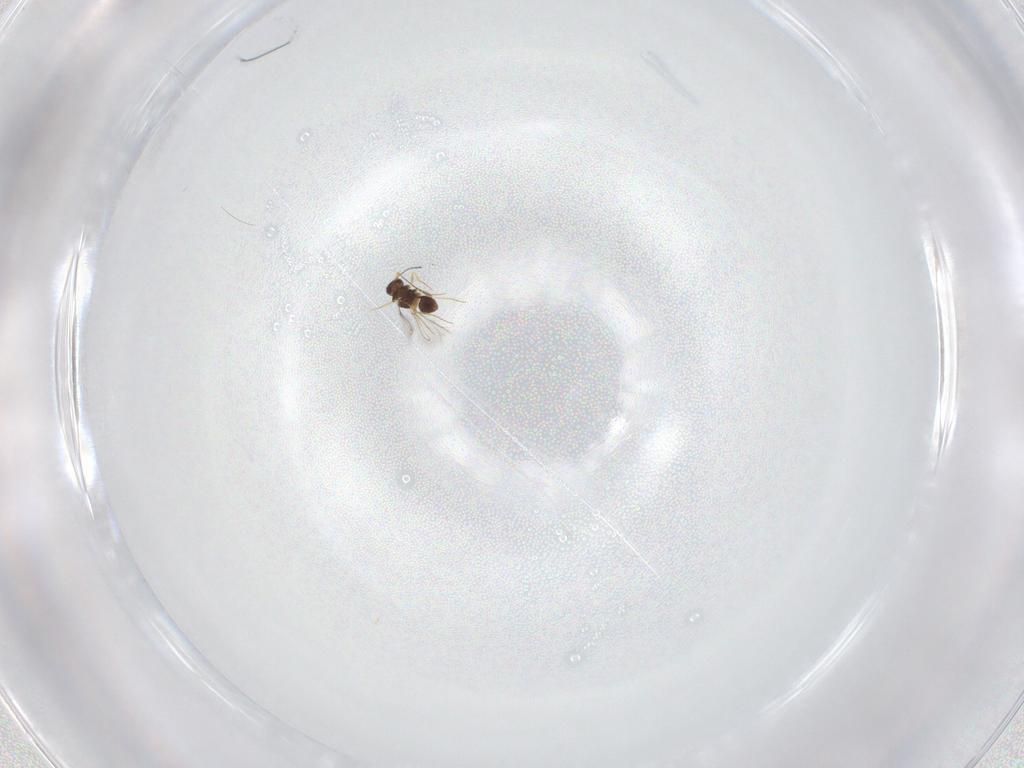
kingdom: Animalia
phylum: Arthropoda
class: Insecta
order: Hymenoptera
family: Mymaridae
